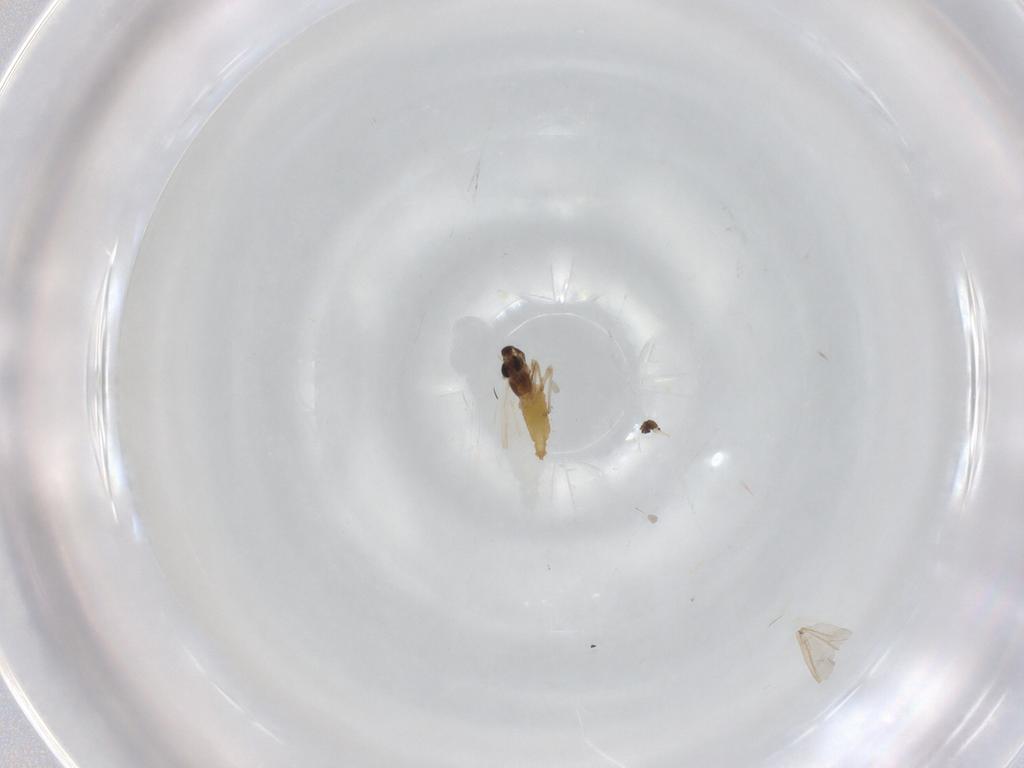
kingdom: Animalia
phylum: Arthropoda
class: Insecta
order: Diptera
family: Chironomidae
